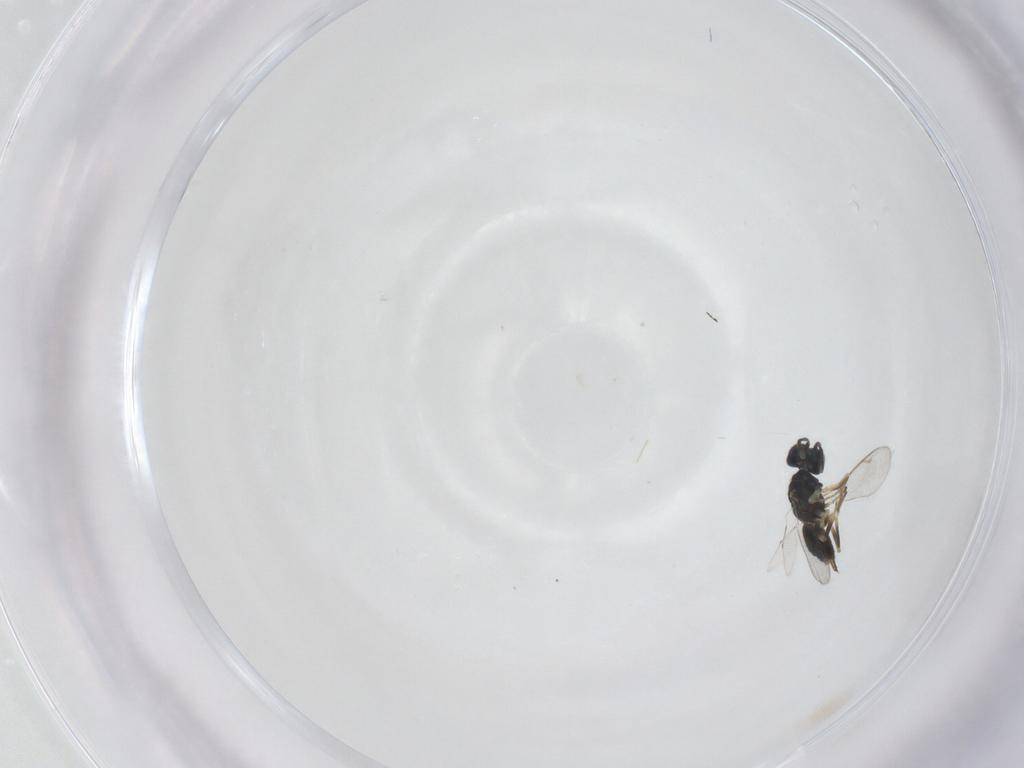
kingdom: Animalia
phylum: Arthropoda
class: Insecta
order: Hymenoptera
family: Eupelmidae
